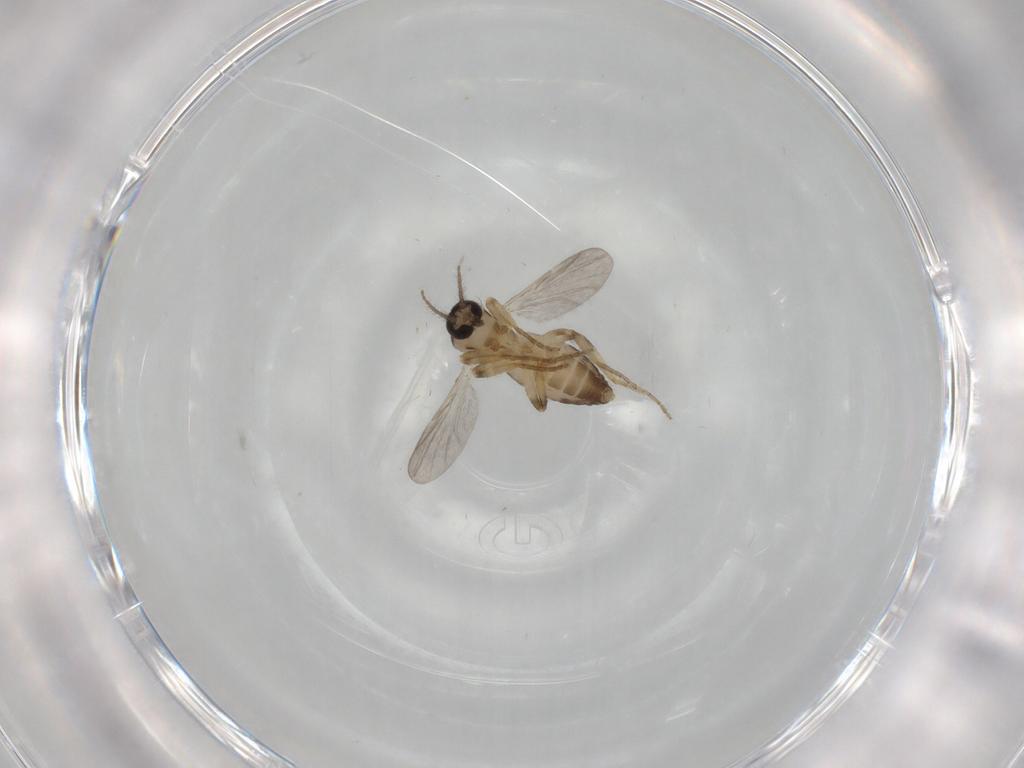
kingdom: Animalia
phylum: Arthropoda
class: Insecta
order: Diptera
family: Ceratopogonidae
